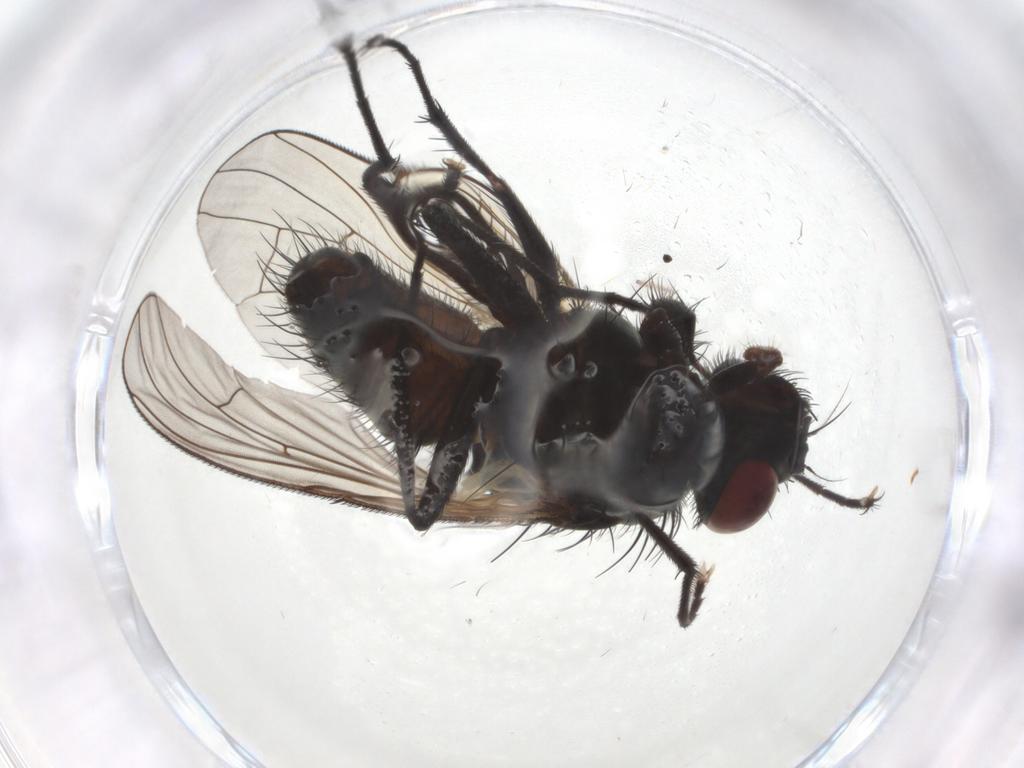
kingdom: Animalia
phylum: Arthropoda
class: Insecta
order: Diptera
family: Muscidae
